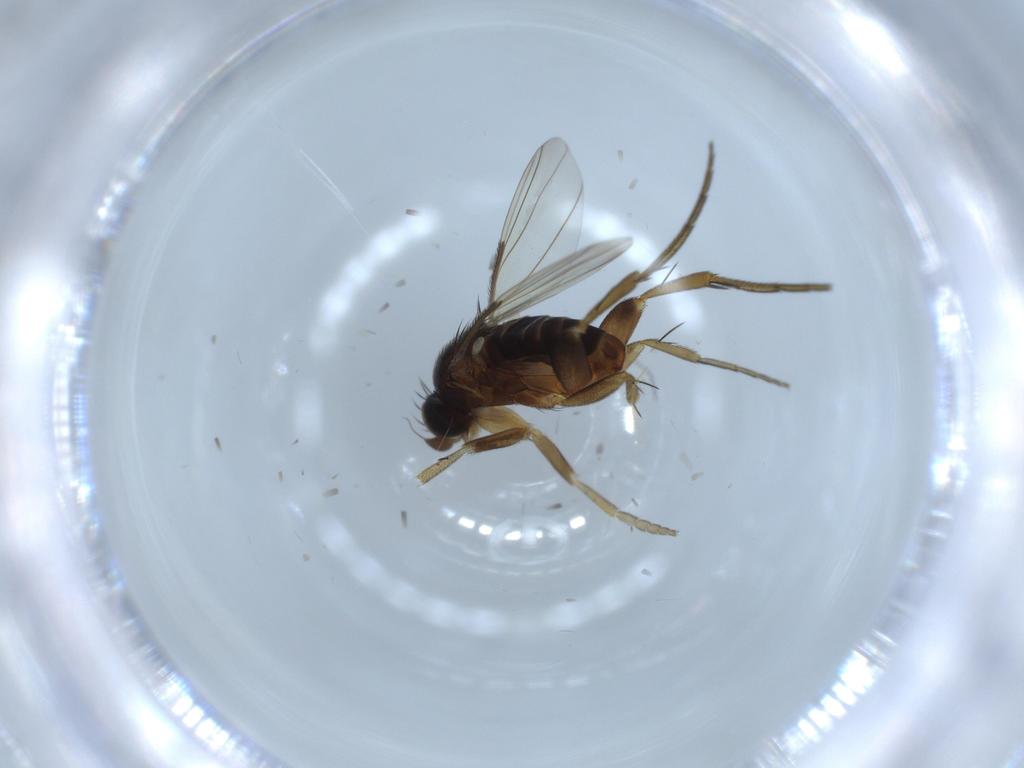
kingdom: Animalia
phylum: Arthropoda
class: Insecta
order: Diptera
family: Chironomidae
